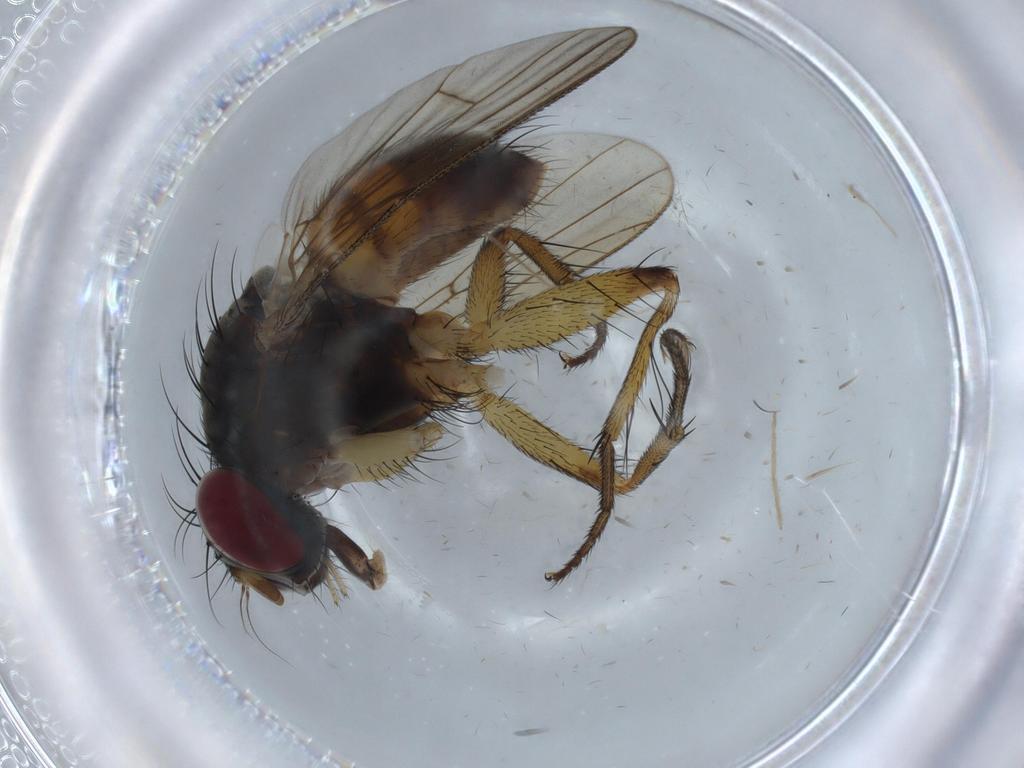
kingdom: Animalia
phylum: Arthropoda
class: Insecta
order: Diptera
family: Muscidae
